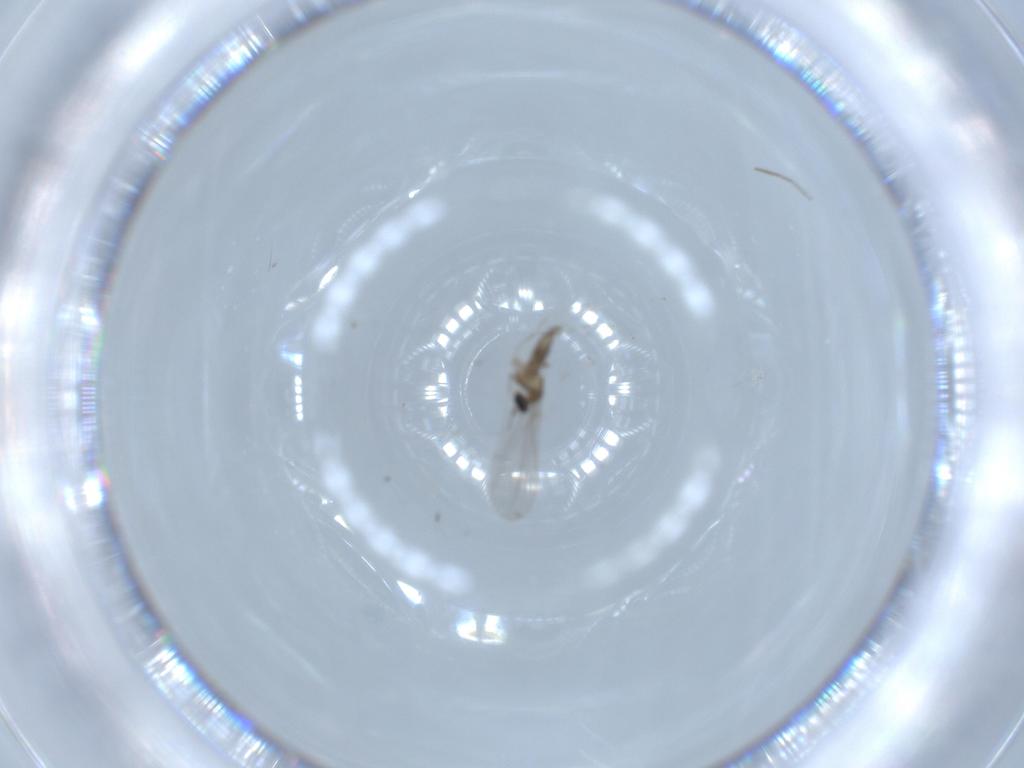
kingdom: Animalia
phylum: Arthropoda
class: Insecta
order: Diptera
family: Cecidomyiidae
